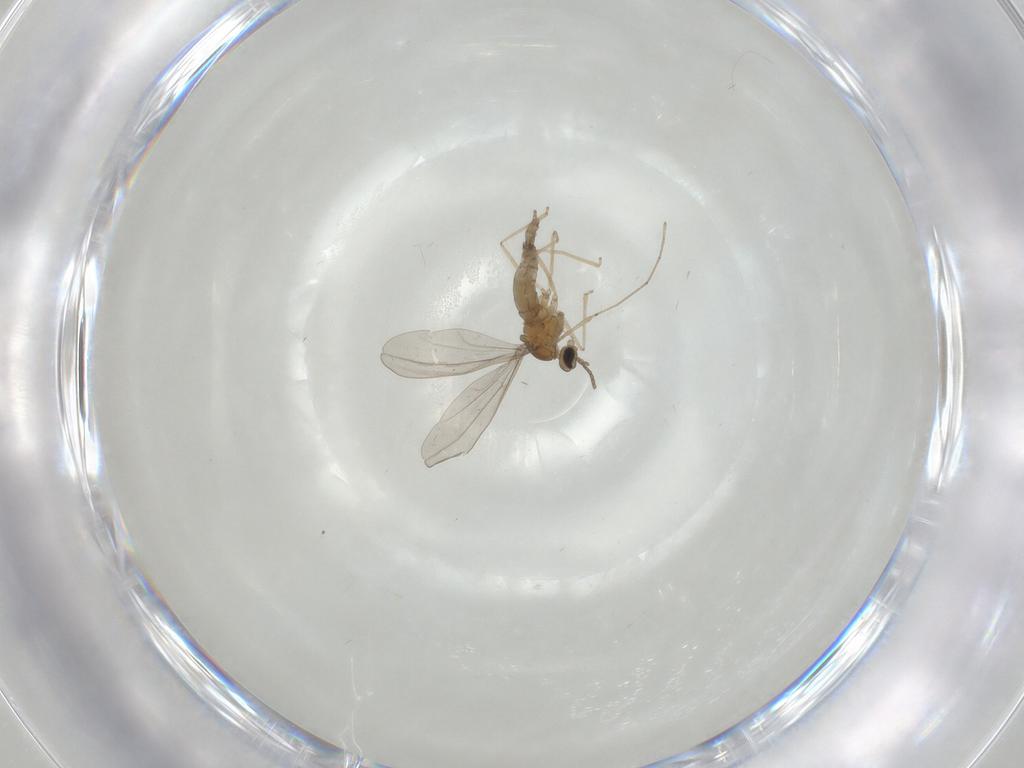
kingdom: Animalia
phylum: Arthropoda
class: Insecta
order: Diptera
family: Cecidomyiidae
